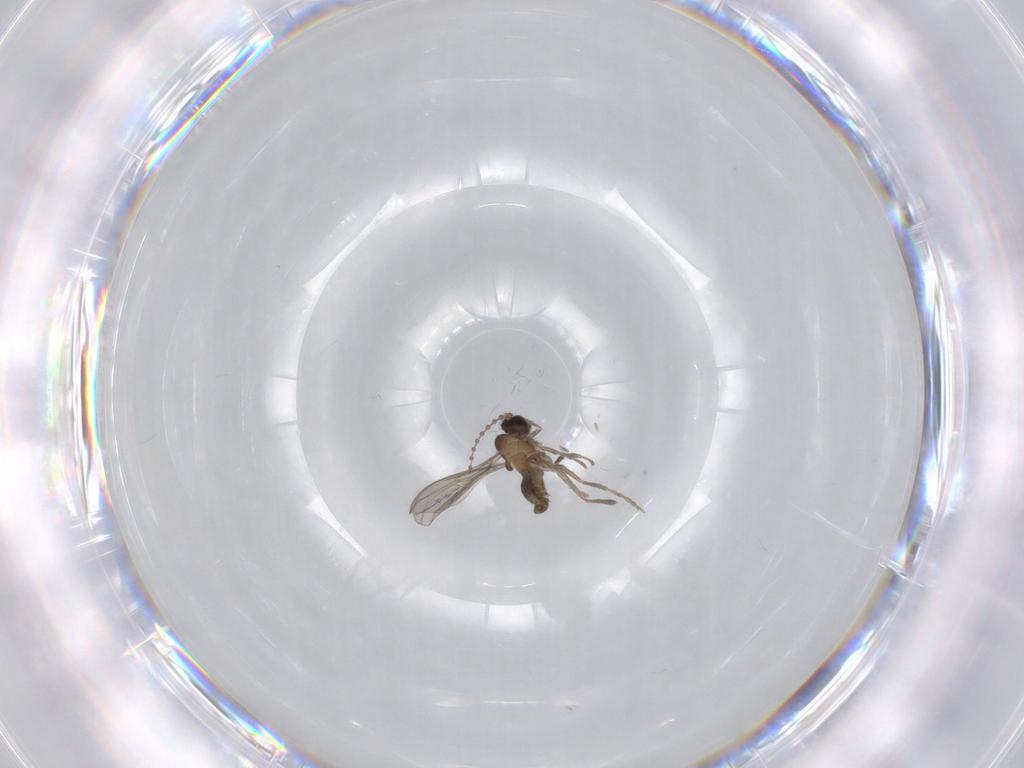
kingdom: Animalia
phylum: Arthropoda
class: Insecta
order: Diptera
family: Cecidomyiidae
